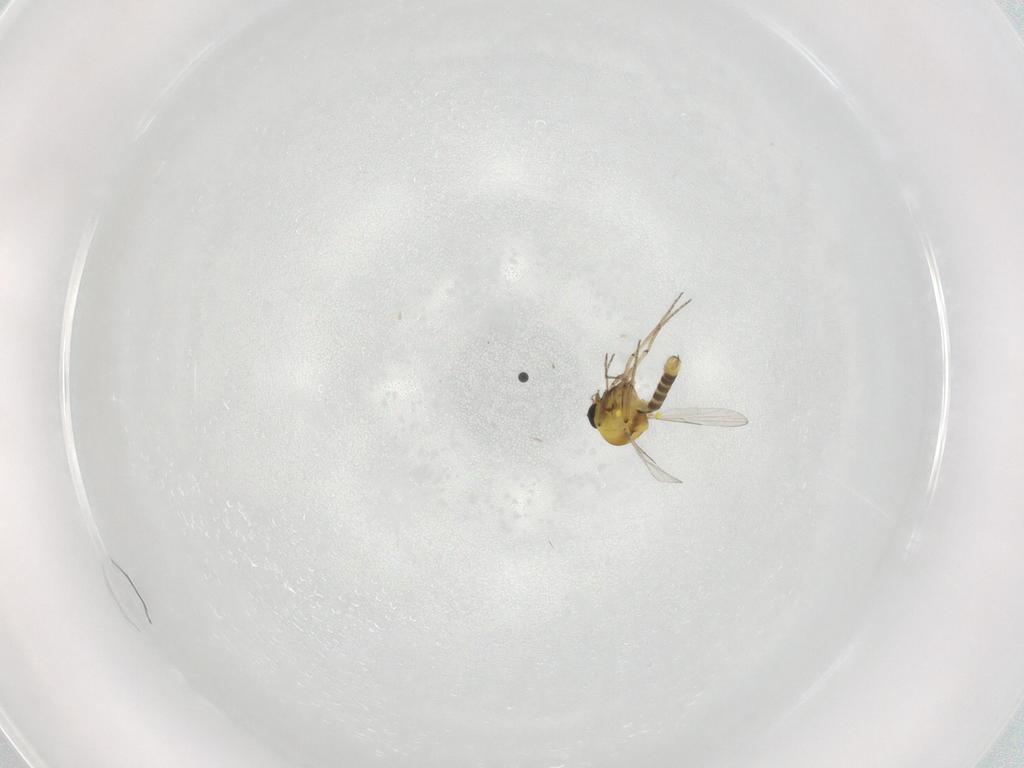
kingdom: Animalia
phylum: Arthropoda
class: Insecta
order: Diptera
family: Ceratopogonidae
